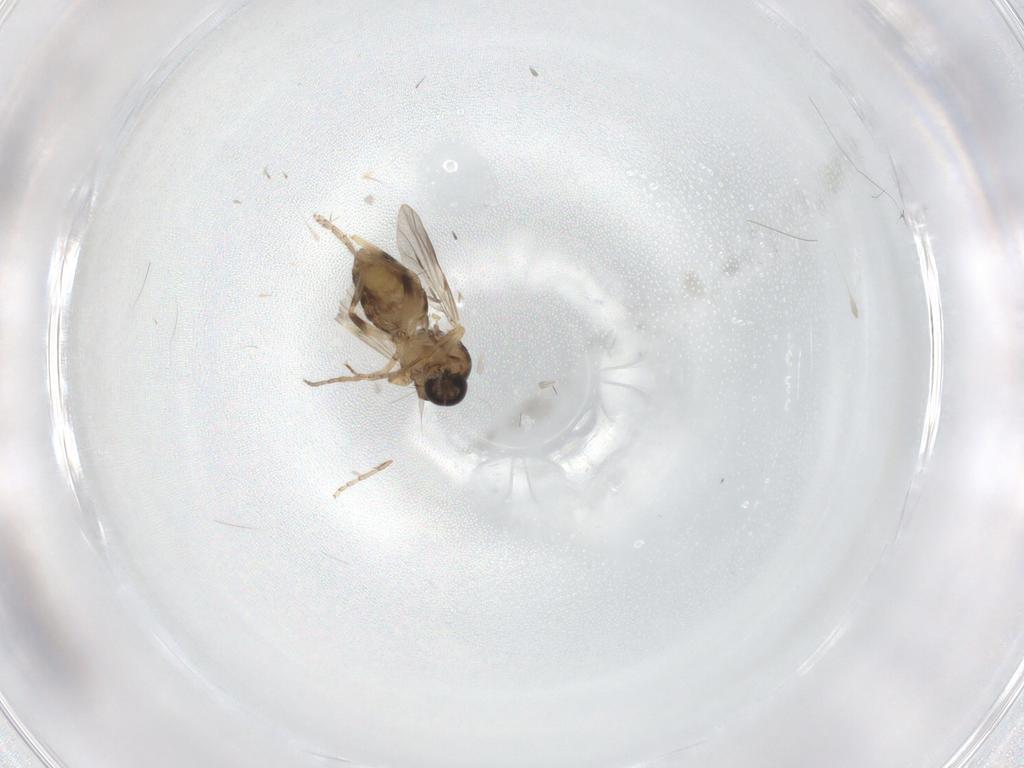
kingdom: Animalia
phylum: Arthropoda
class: Insecta
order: Diptera
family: Ceratopogonidae
